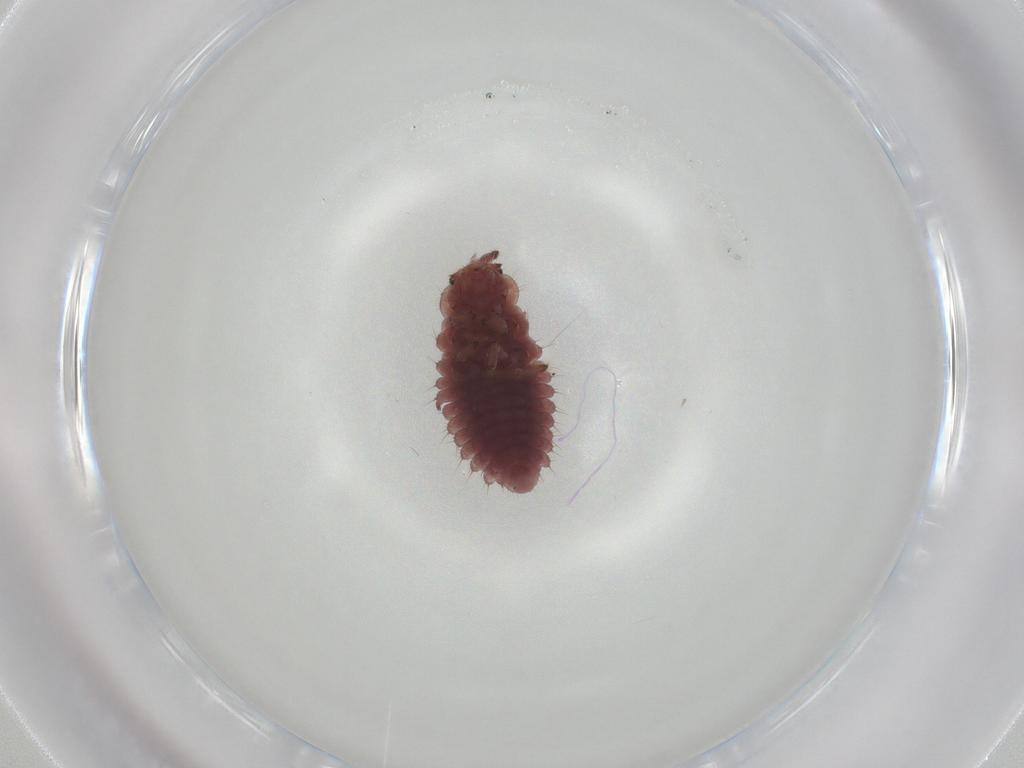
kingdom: Animalia
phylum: Arthropoda
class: Insecta
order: Coleoptera
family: Coccinellidae
